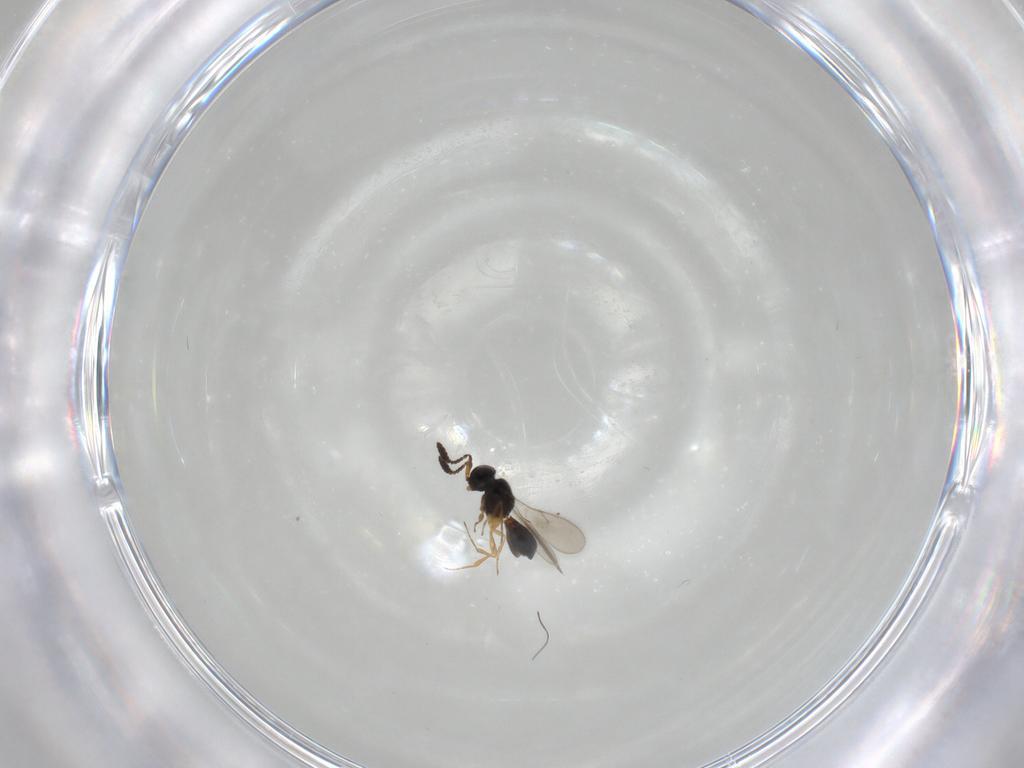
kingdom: Animalia
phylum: Arthropoda
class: Insecta
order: Hymenoptera
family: Scelionidae
